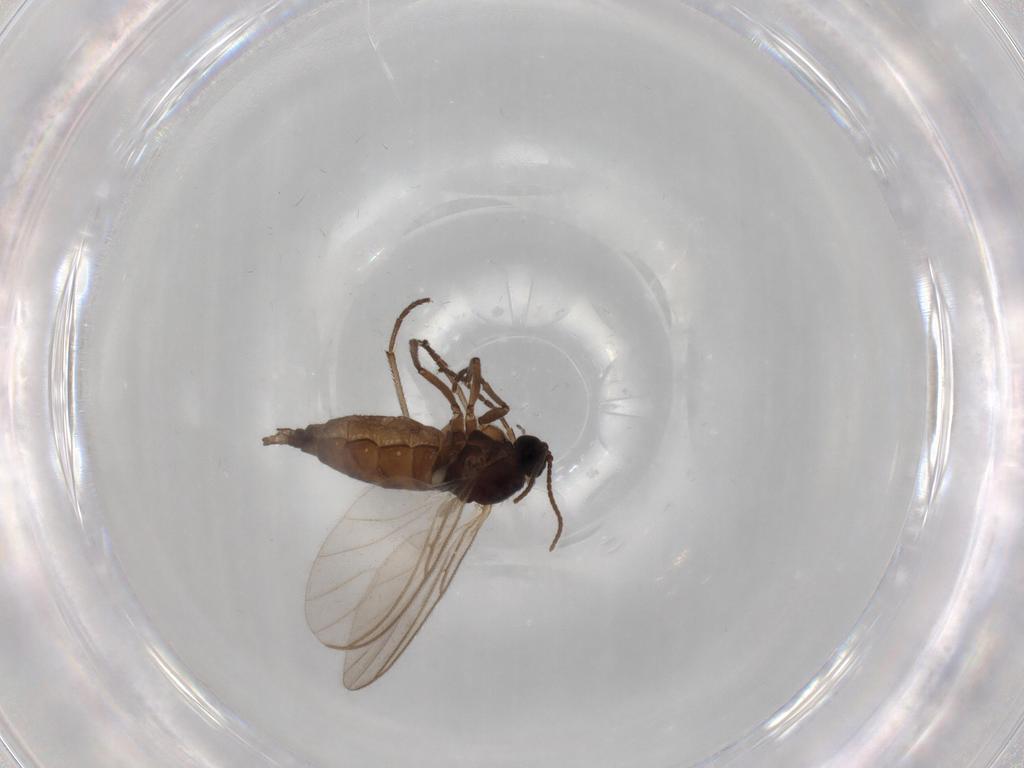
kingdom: Animalia
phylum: Arthropoda
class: Insecta
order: Diptera
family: Sciaridae
